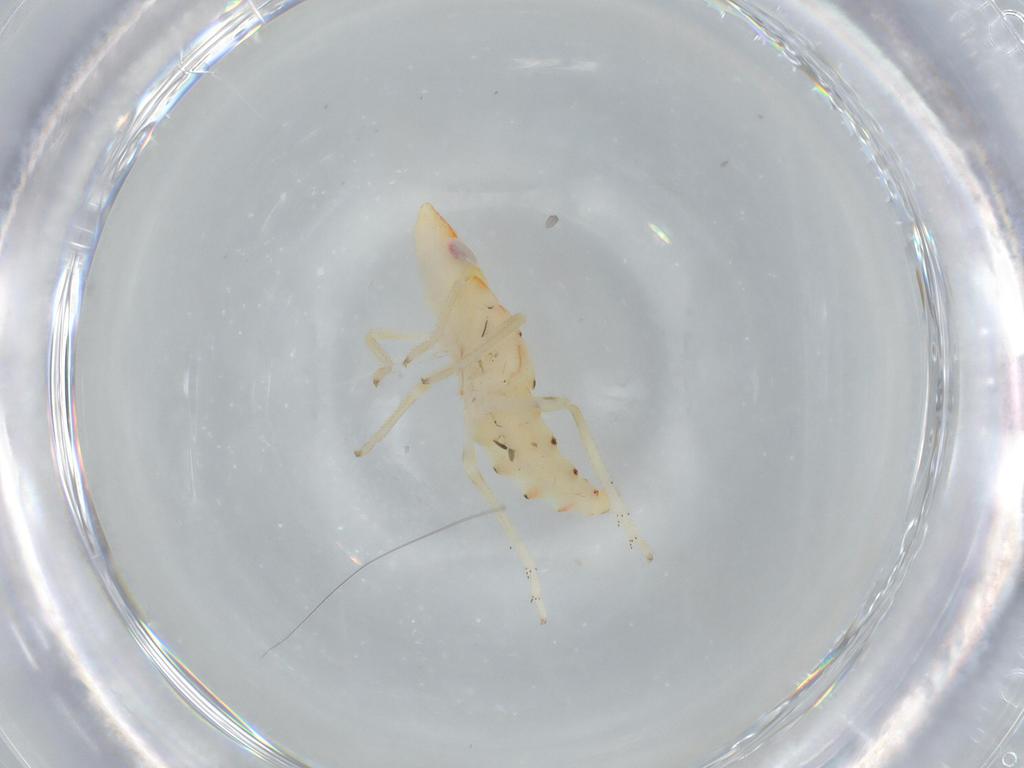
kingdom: Animalia
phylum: Arthropoda
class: Insecta
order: Hemiptera
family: Tropiduchidae
